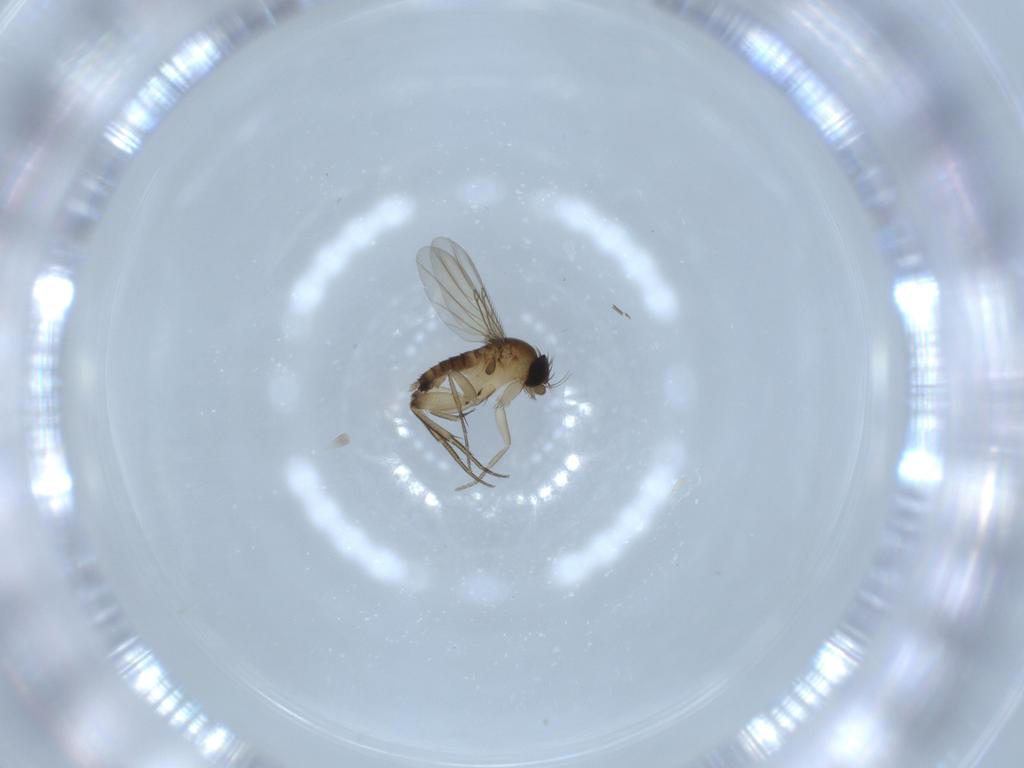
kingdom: Animalia
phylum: Arthropoda
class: Insecta
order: Diptera
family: Phoridae
